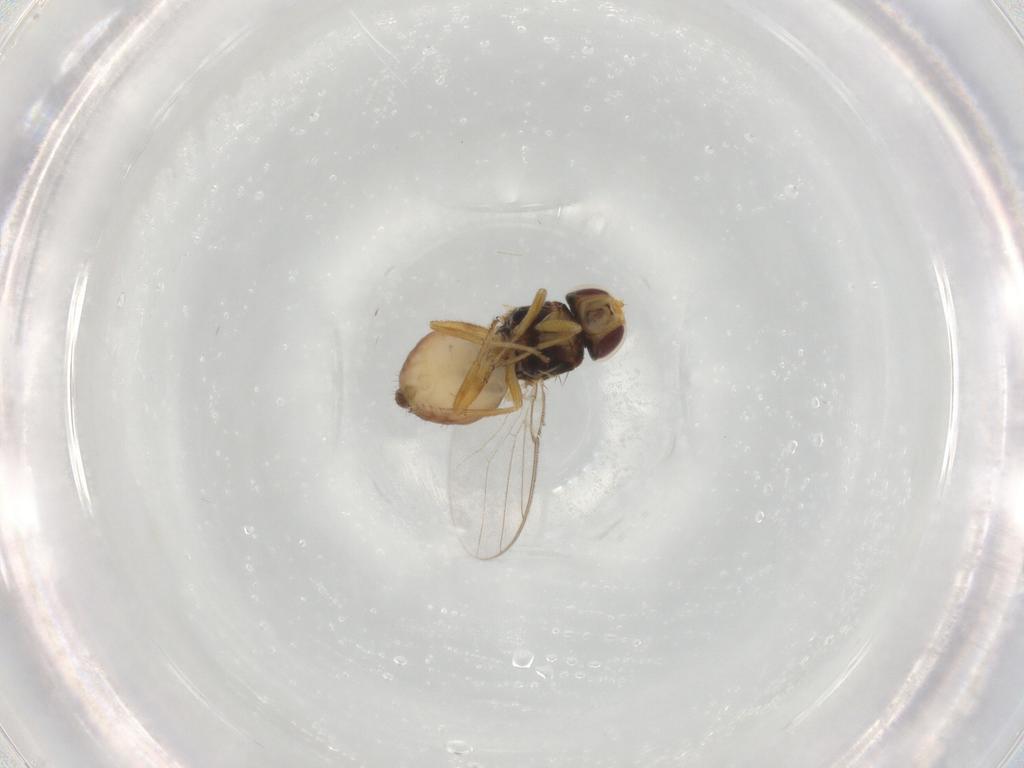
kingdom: Animalia
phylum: Arthropoda
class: Insecta
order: Diptera
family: Chloropidae
